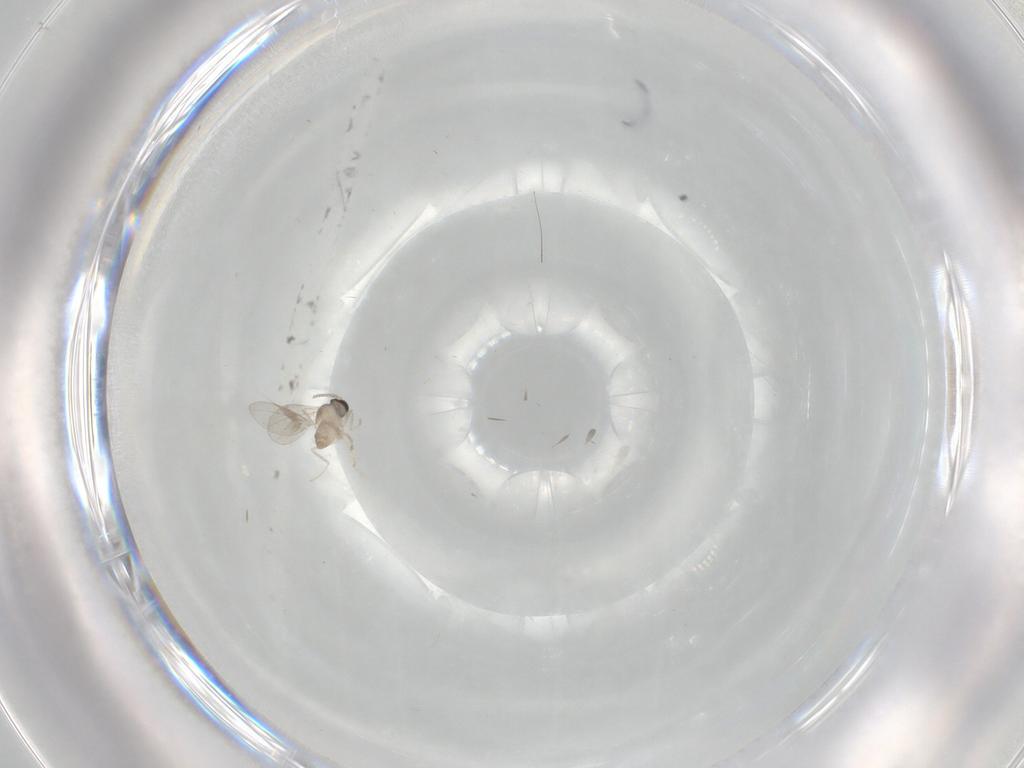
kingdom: Animalia
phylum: Arthropoda
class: Insecta
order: Diptera
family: Cecidomyiidae
